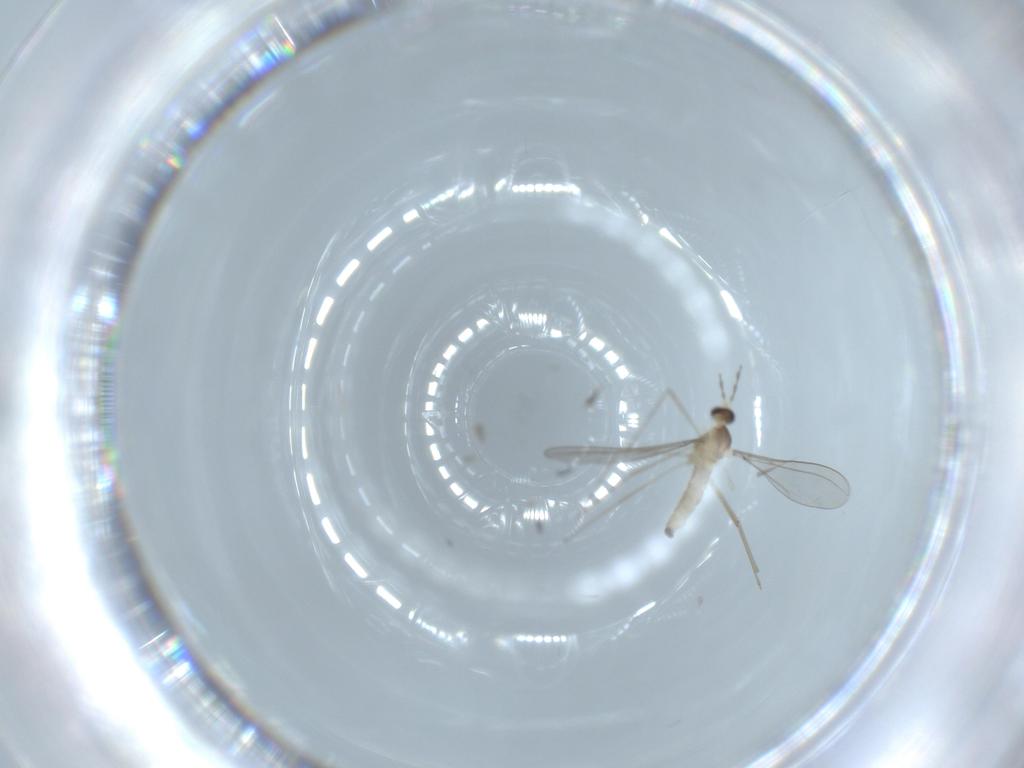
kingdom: Animalia
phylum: Arthropoda
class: Insecta
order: Diptera
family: Cecidomyiidae
